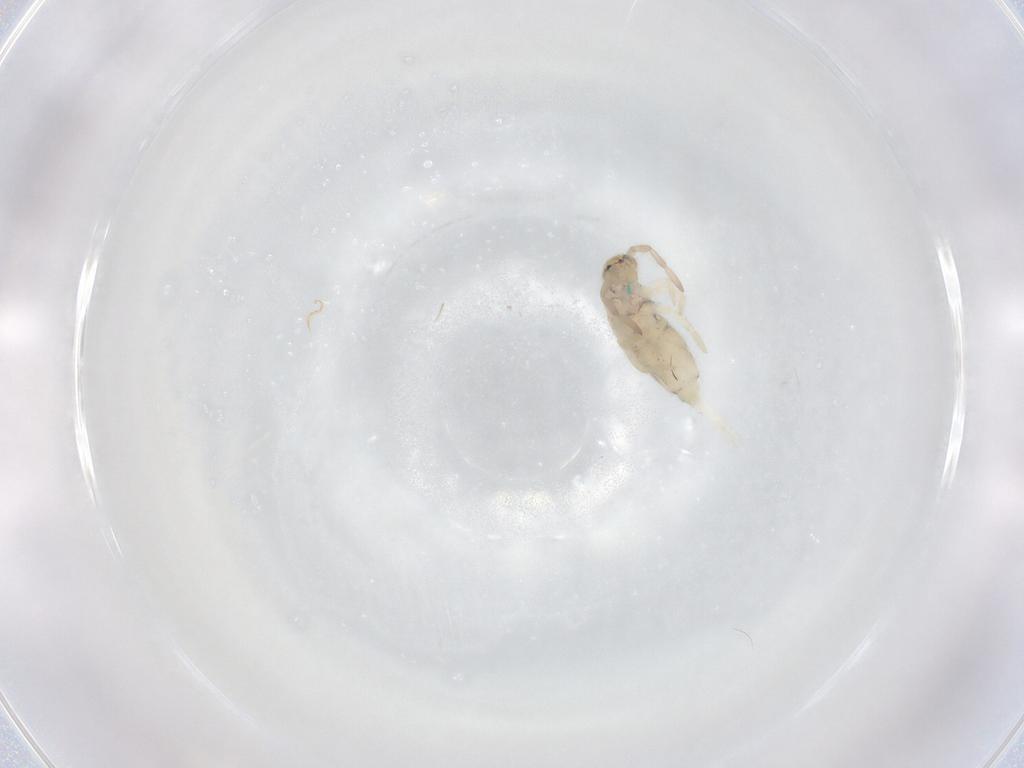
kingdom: Animalia
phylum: Arthropoda
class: Collembola
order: Entomobryomorpha
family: Entomobryidae
